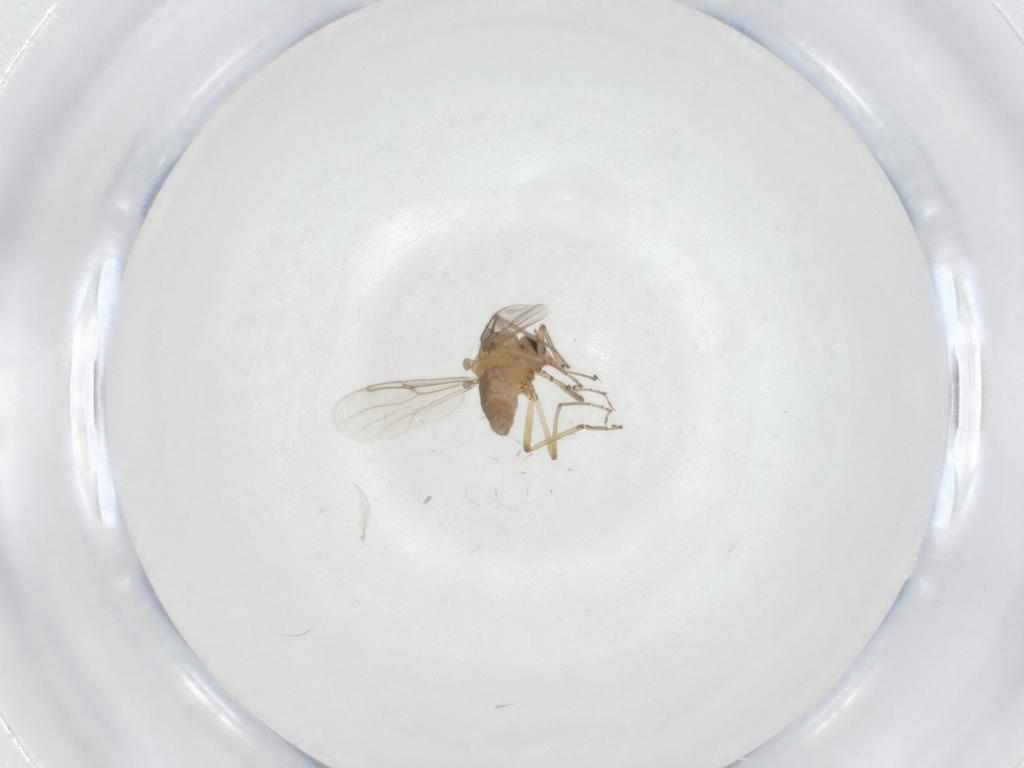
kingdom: Animalia
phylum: Arthropoda
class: Insecta
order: Diptera
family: Ceratopogonidae
